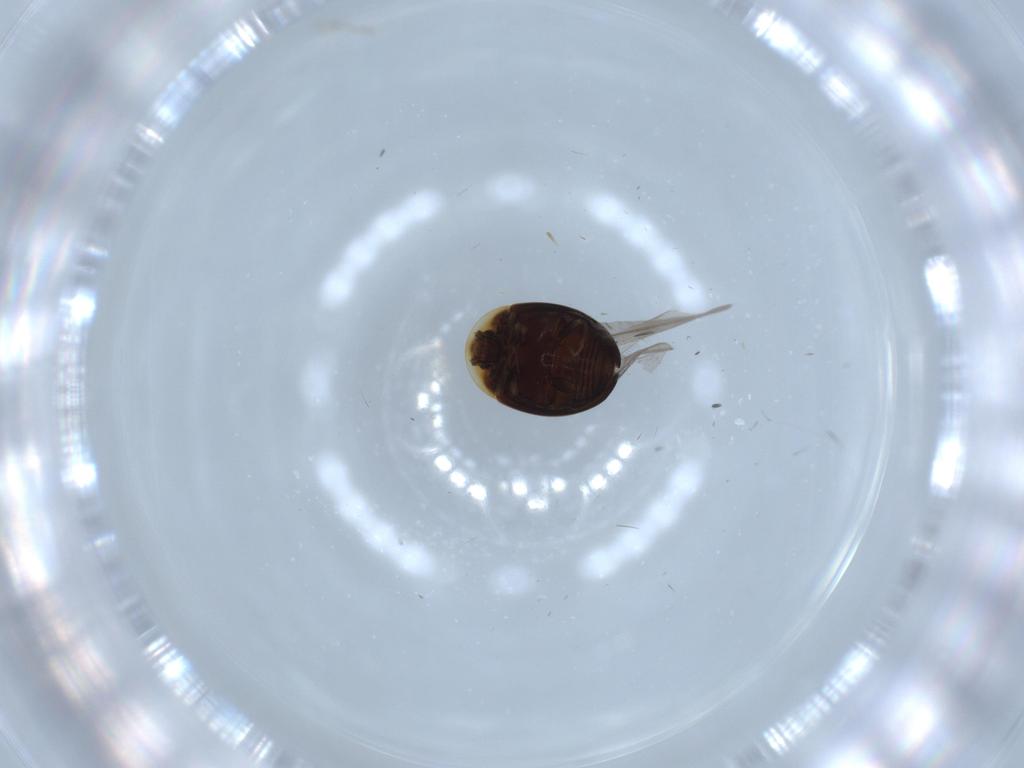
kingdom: Animalia
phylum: Arthropoda
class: Insecta
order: Coleoptera
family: Corylophidae
